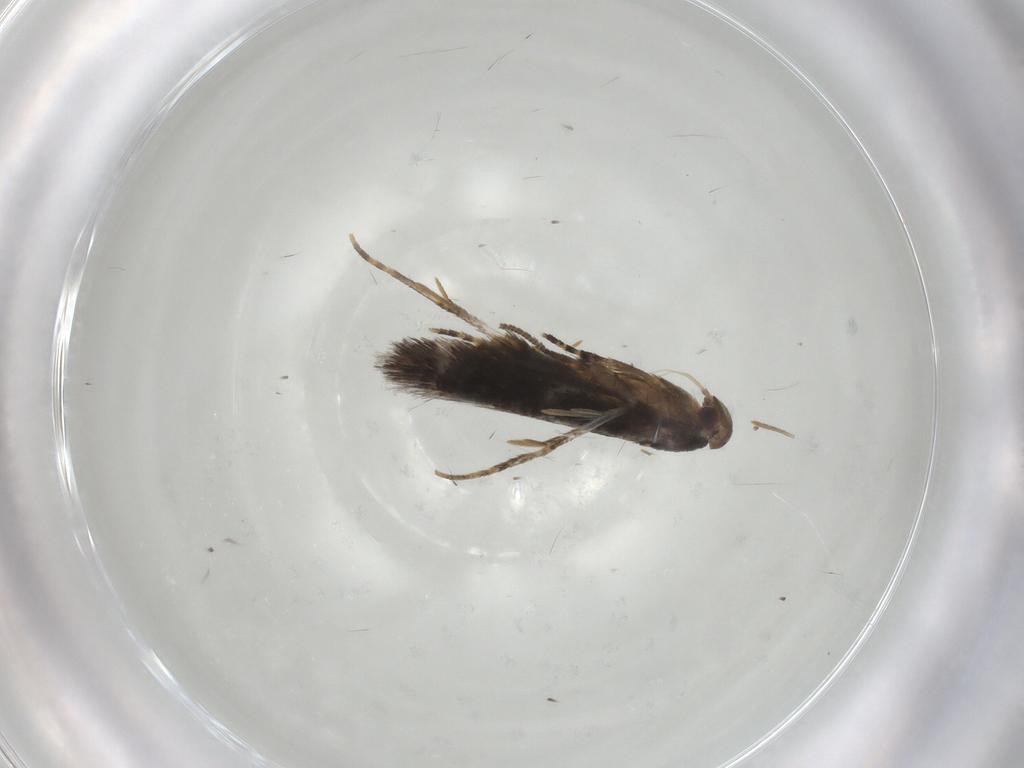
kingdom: Animalia
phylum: Arthropoda
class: Insecta
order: Lepidoptera
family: Elachistidae
